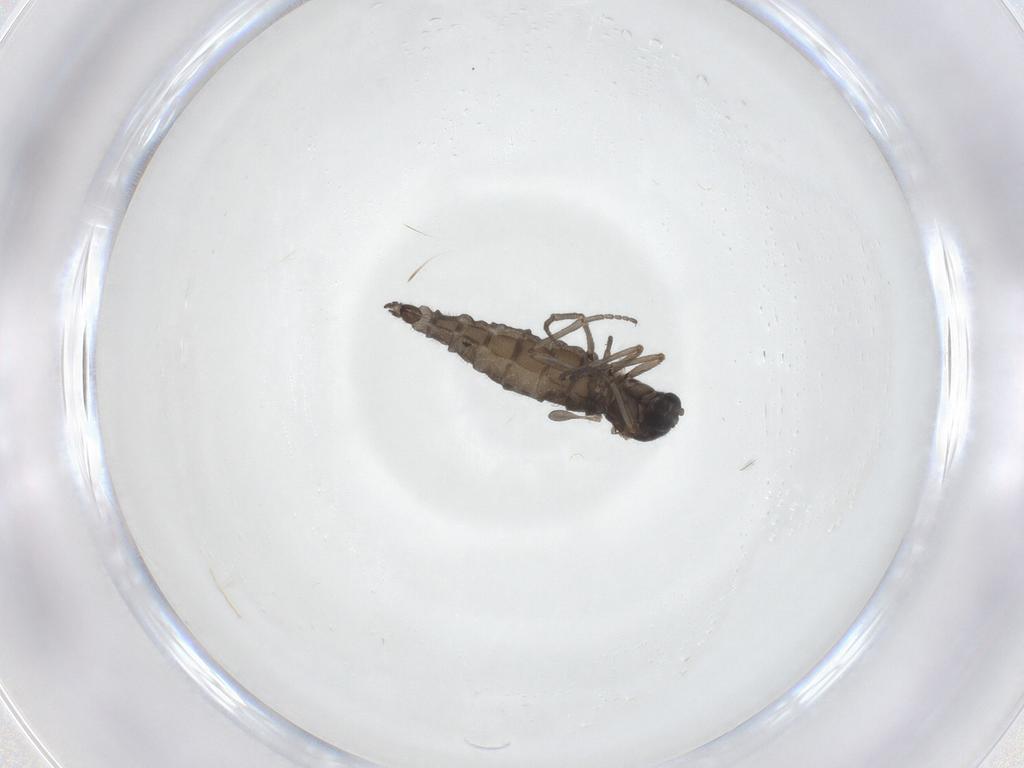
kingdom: Animalia
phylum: Arthropoda
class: Insecta
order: Diptera
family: Sciaridae
